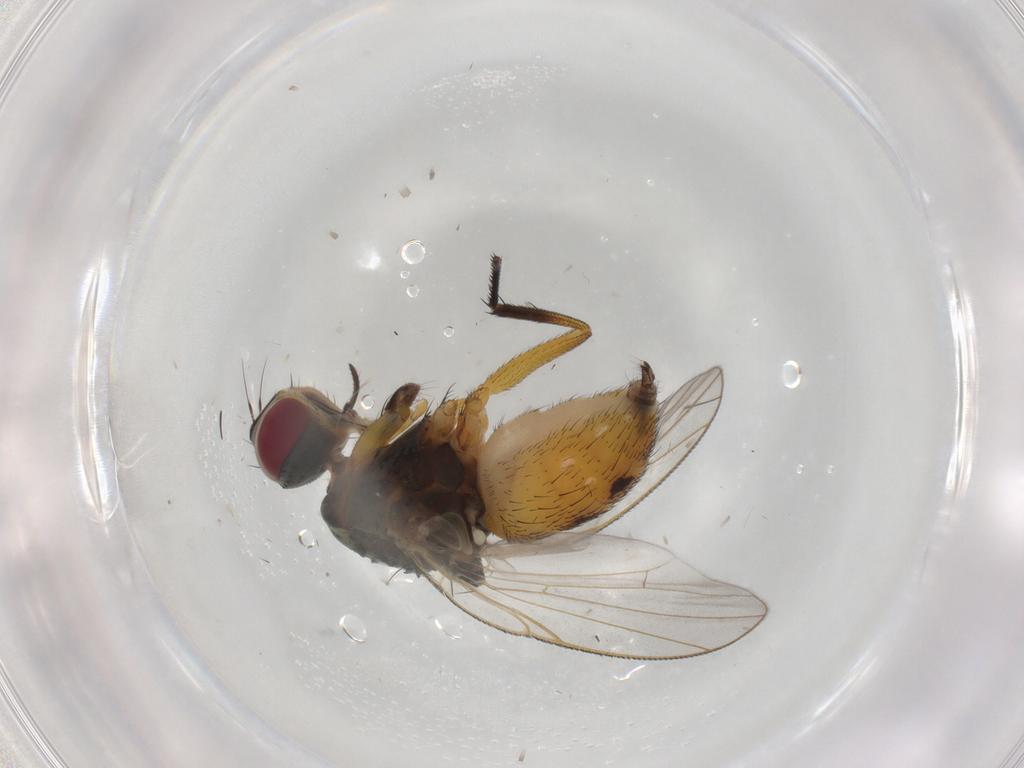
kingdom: Animalia
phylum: Arthropoda
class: Insecta
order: Diptera
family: Muscidae
